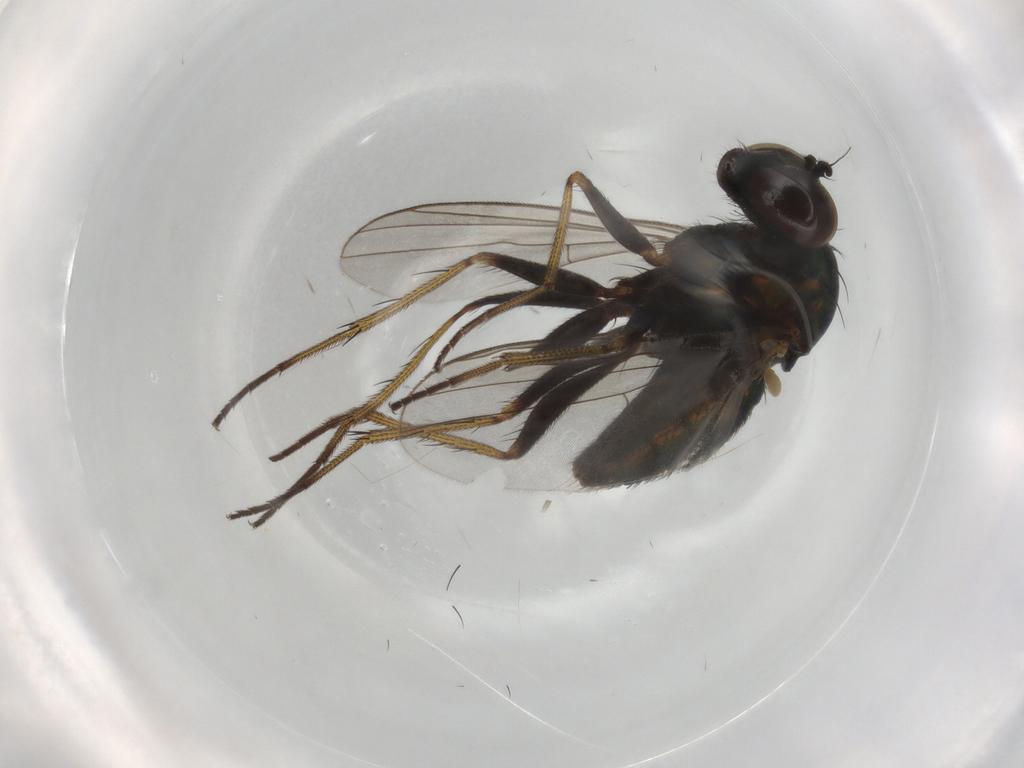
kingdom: Animalia
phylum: Arthropoda
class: Insecta
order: Diptera
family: Dolichopodidae
